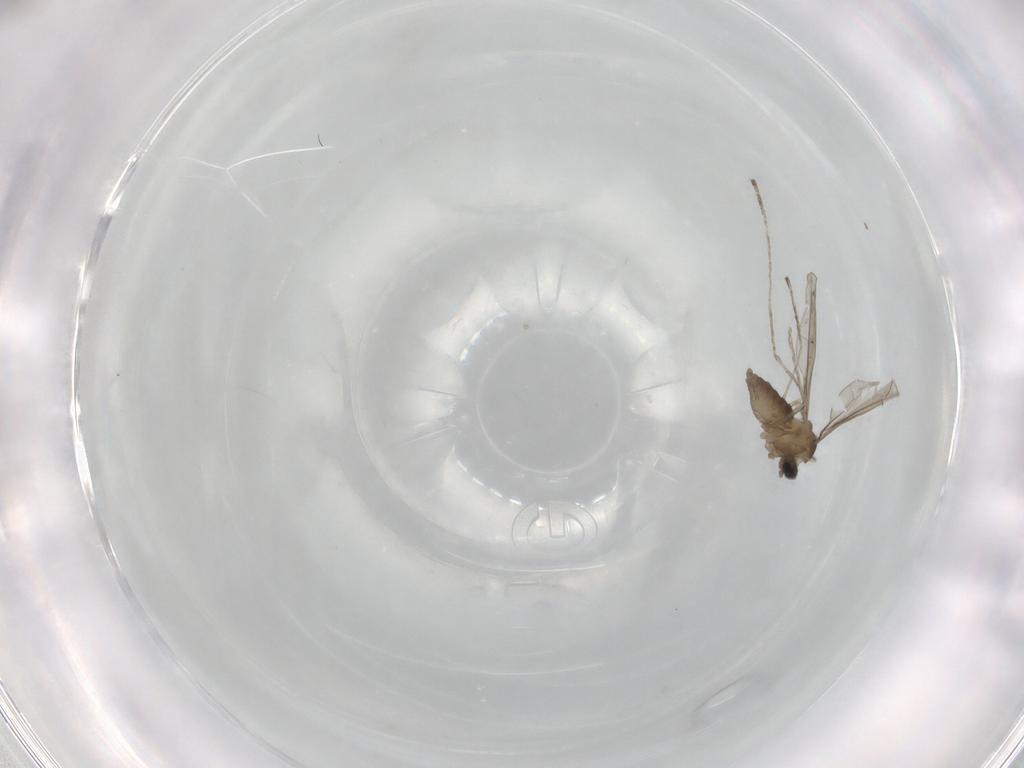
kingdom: Animalia
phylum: Arthropoda
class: Insecta
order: Diptera
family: Cecidomyiidae
